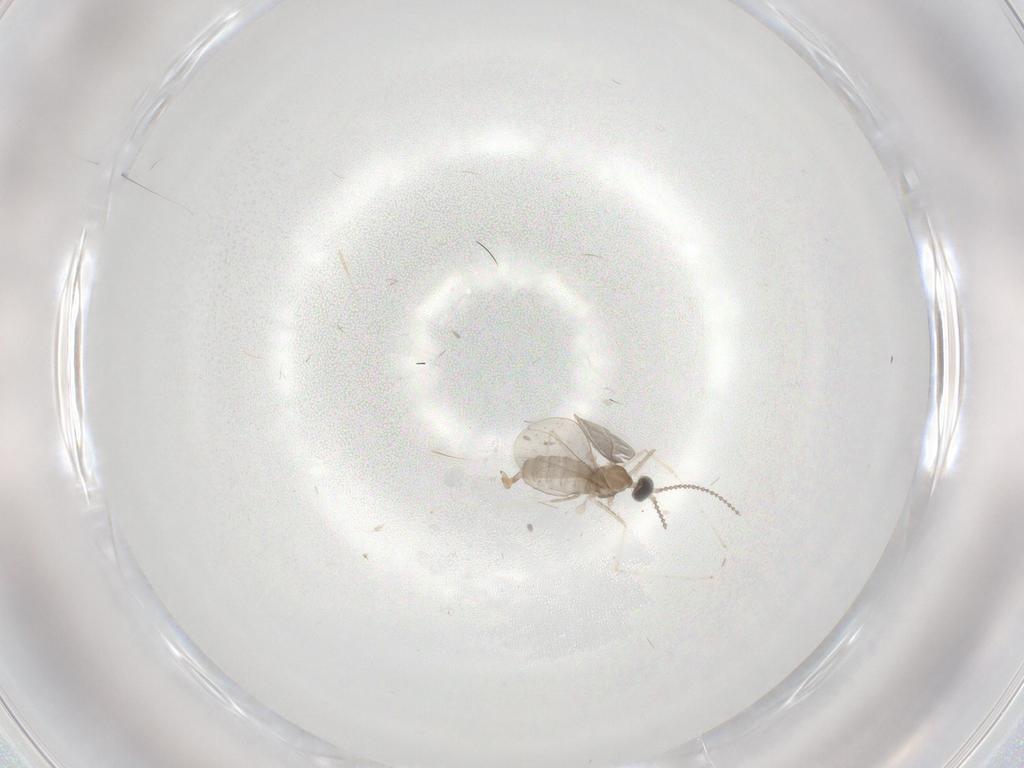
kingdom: Animalia
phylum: Arthropoda
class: Insecta
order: Diptera
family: Cecidomyiidae
